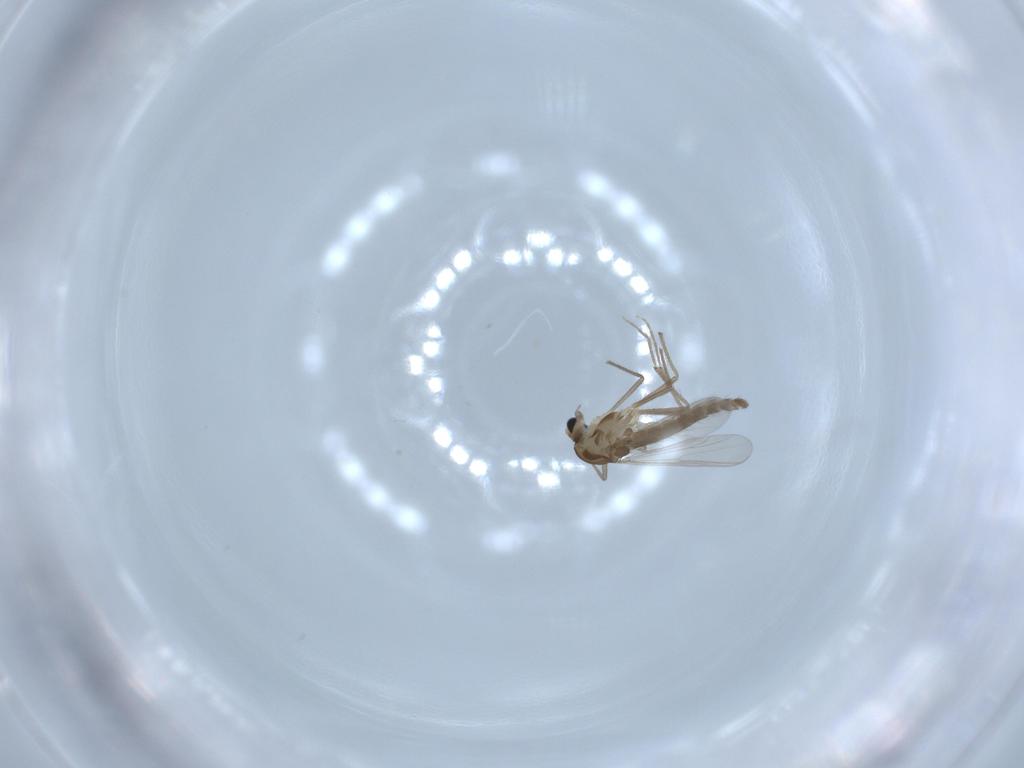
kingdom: Animalia
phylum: Arthropoda
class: Insecta
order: Diptera
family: Chironomidae
